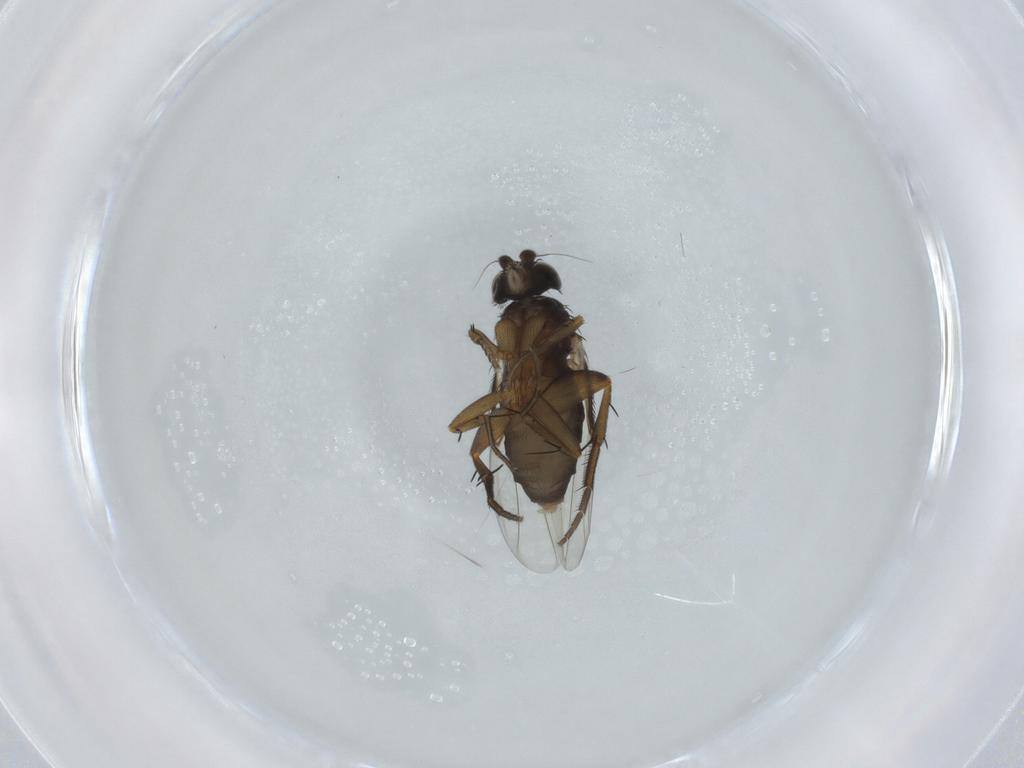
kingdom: Animalia
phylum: Arthropoda
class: Insecta
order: Diptera
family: Phoridae
